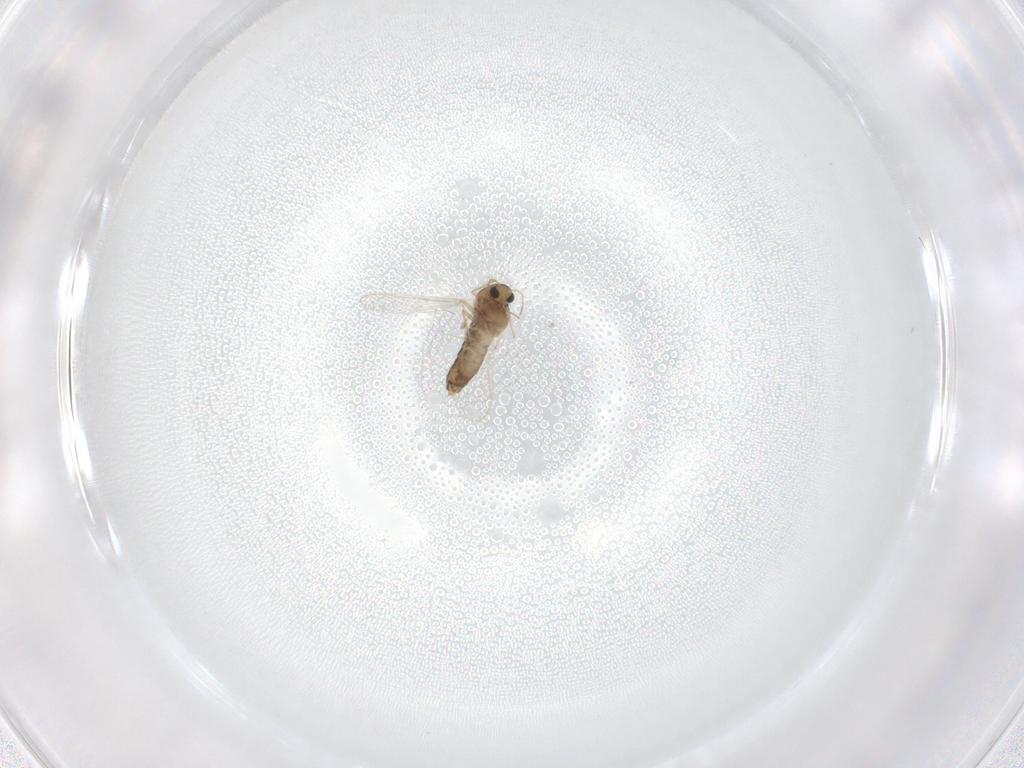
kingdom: Animalia
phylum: Arthropoda
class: Insecta
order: Diptera
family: Chironomidae
